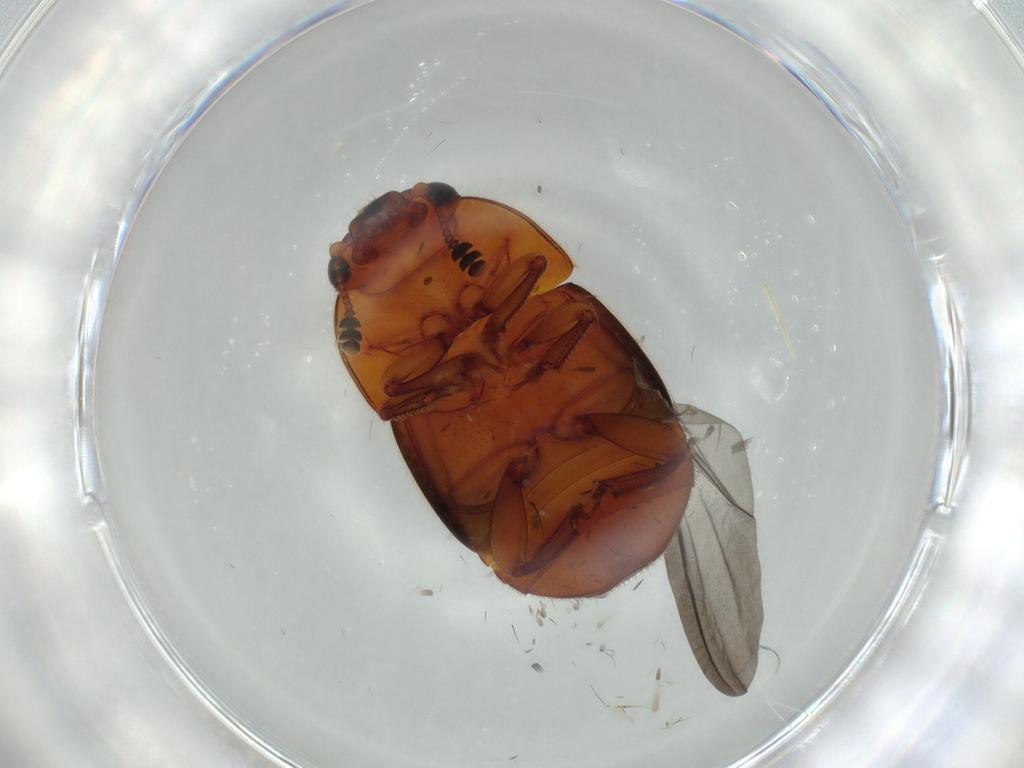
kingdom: Animalia
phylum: Arthropoda
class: Insecta
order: Coleoptera
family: Nitidulidae
